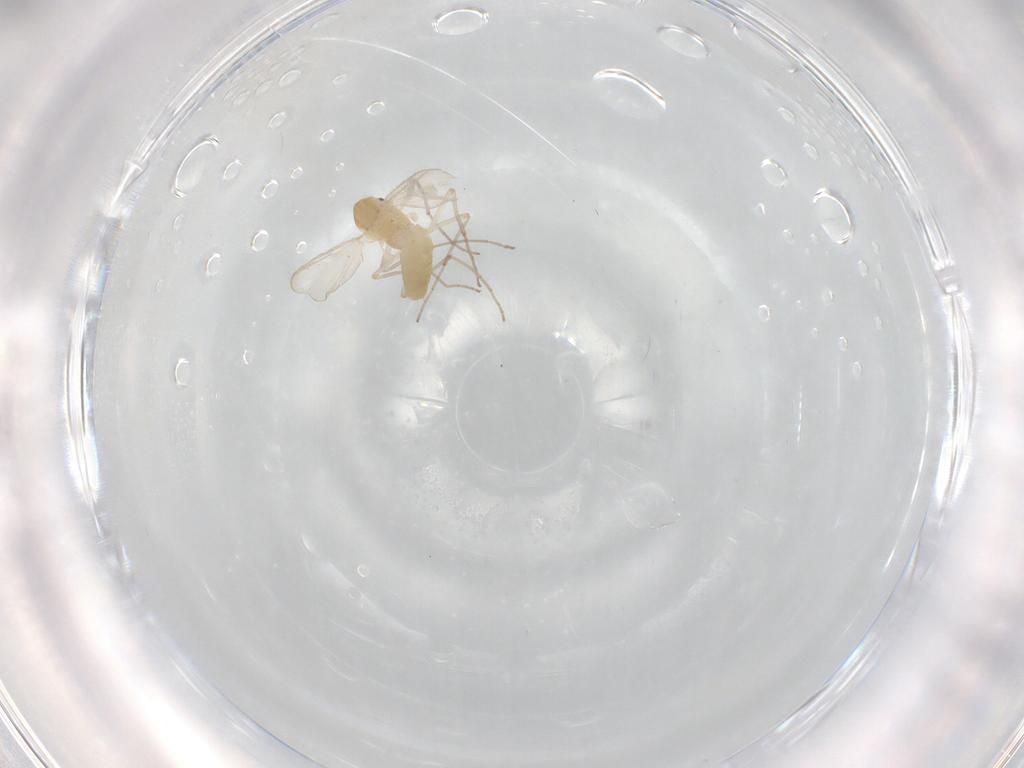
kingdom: Animalia
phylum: Arthropoda
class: Insecta
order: Diptera
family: Chironomidae
